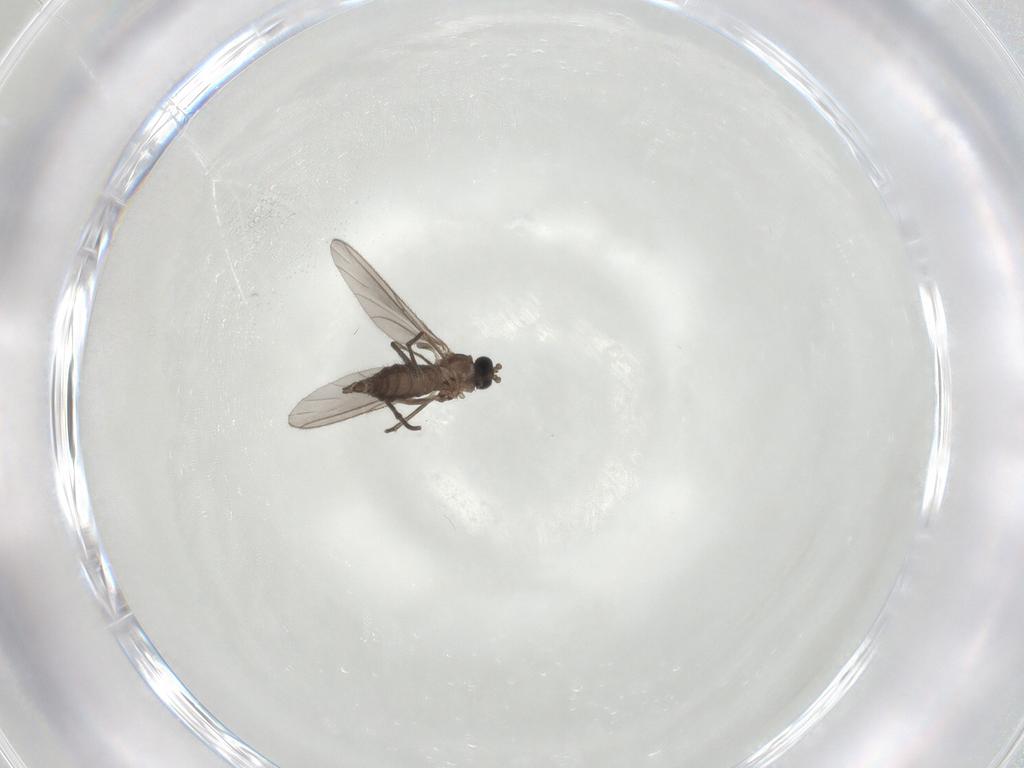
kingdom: Animalia
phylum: Arthropoda
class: Insecta
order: Diptera
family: Sciaridae
